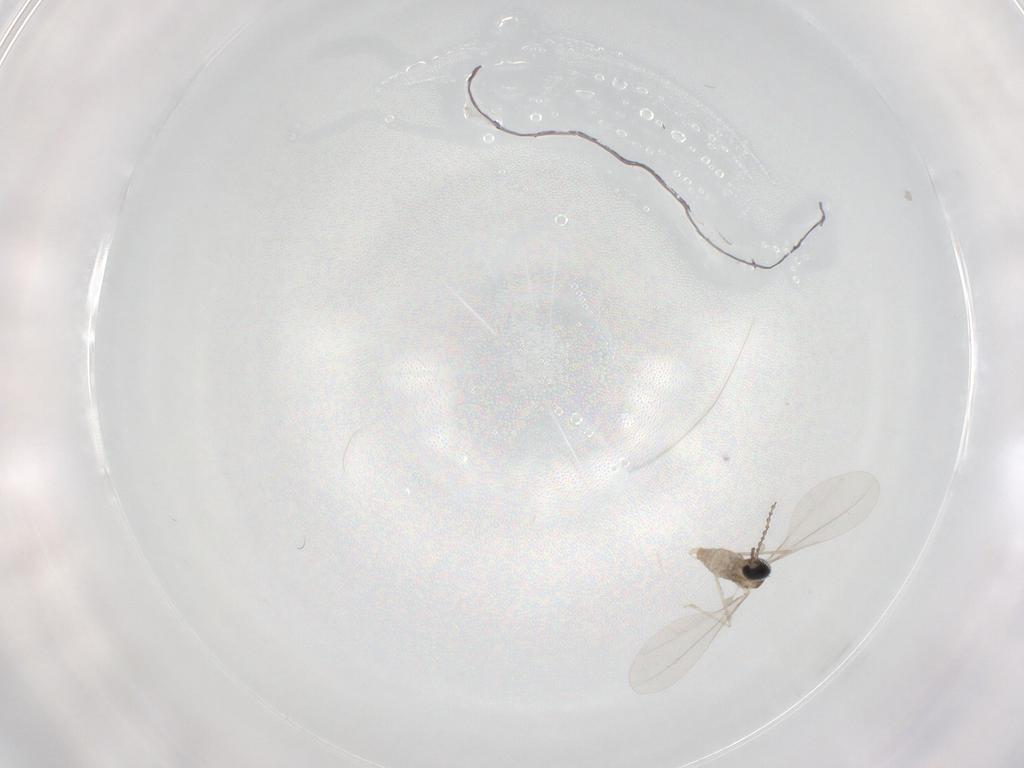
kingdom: Animalia
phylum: Arthropoda
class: Insecta
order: Diptera
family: Cecidomyiidae
